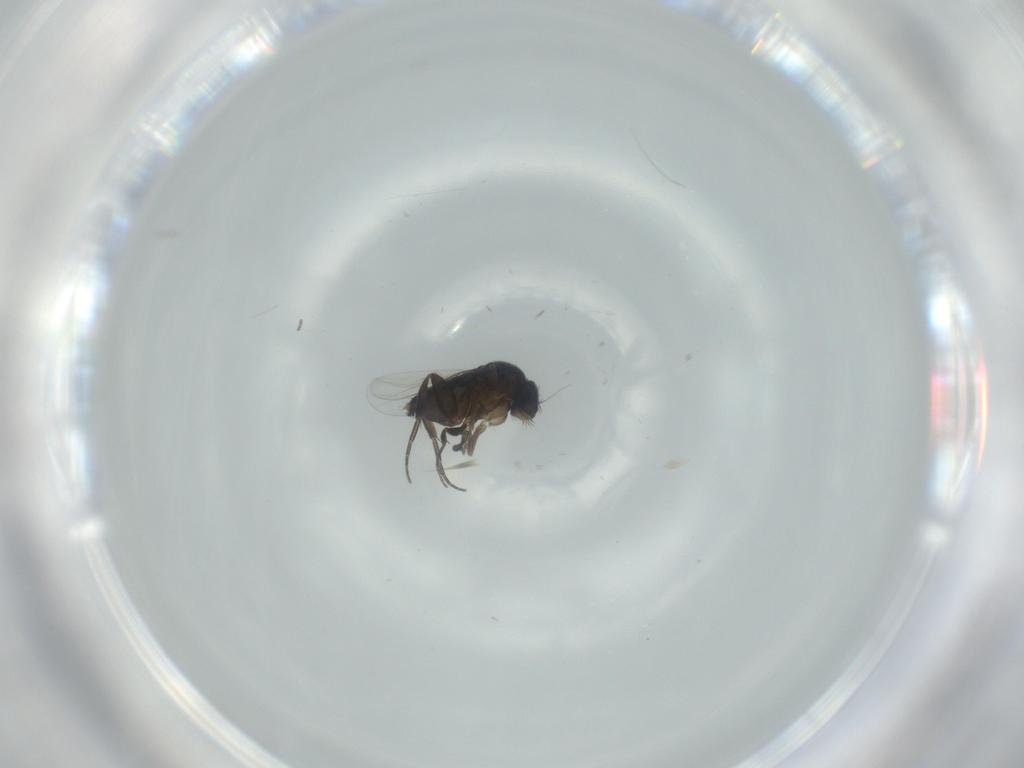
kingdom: Animalia
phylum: Arthropoda
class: Insecta
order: Diptera
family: Phoridae
